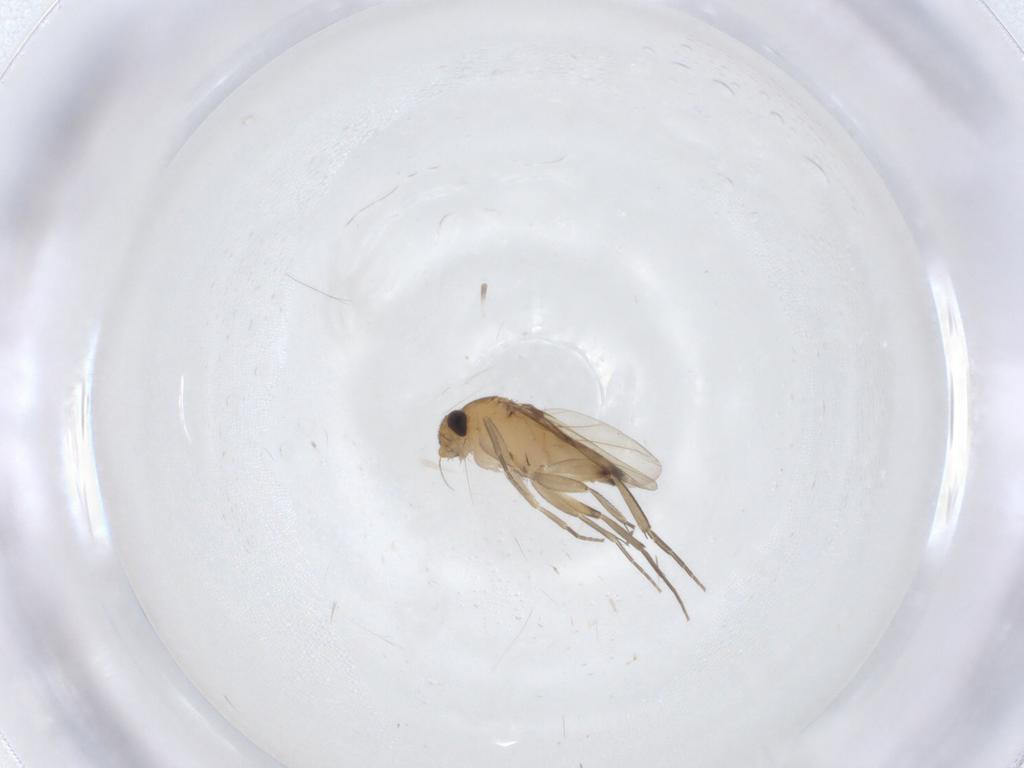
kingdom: Animalia
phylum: Arthropoda
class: Insecta
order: Diptera
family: Phoridae
